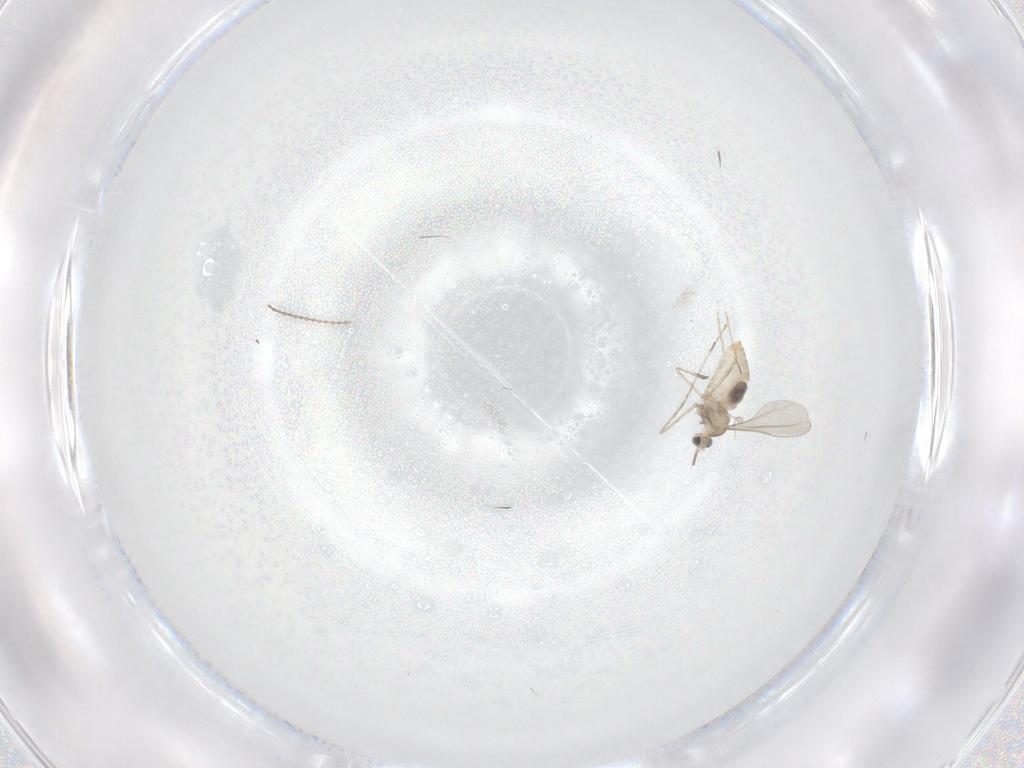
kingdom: Animalia
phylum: Arthropoda
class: Insecta
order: Diptera
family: Cecidomyiidae
